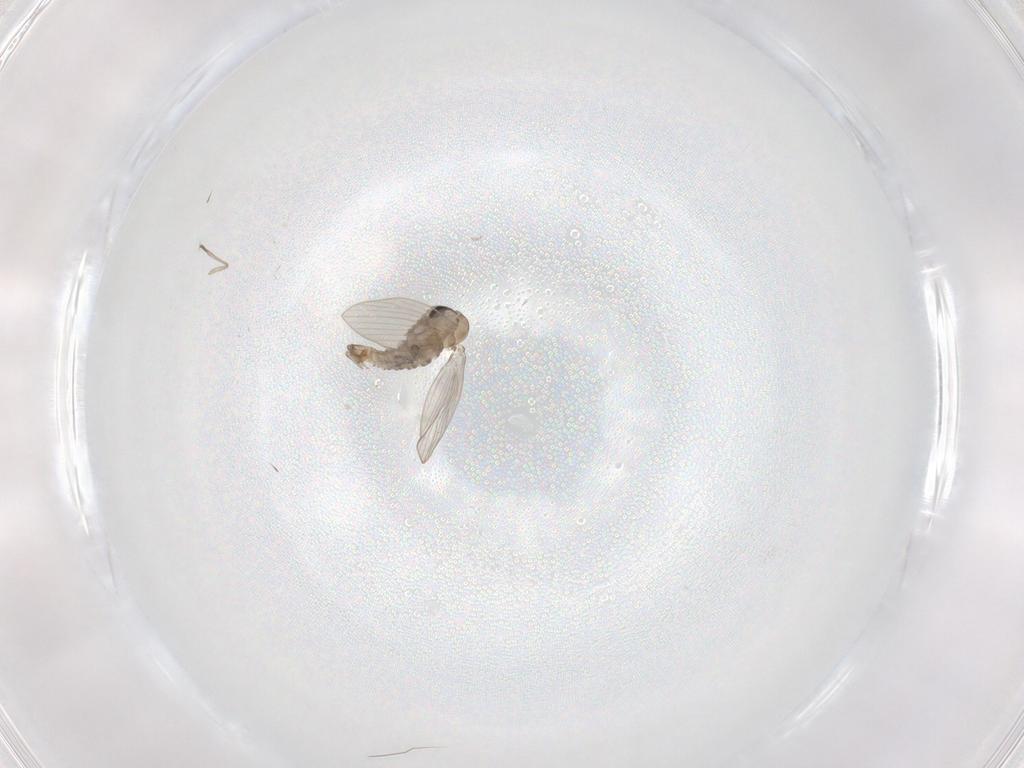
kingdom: Animalia
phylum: Arthropoda
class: Insecta
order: Diptera
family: Psychodidae
